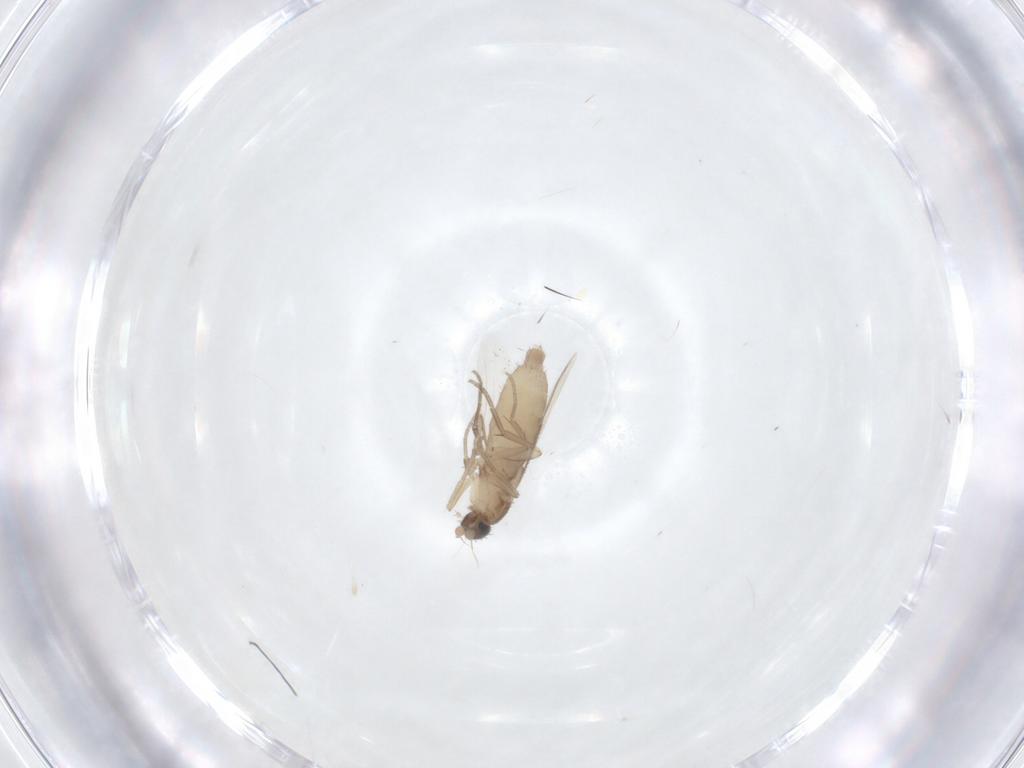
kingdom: Animalia
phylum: Arthropoda
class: Insecta
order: Diptera
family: Phoridae
